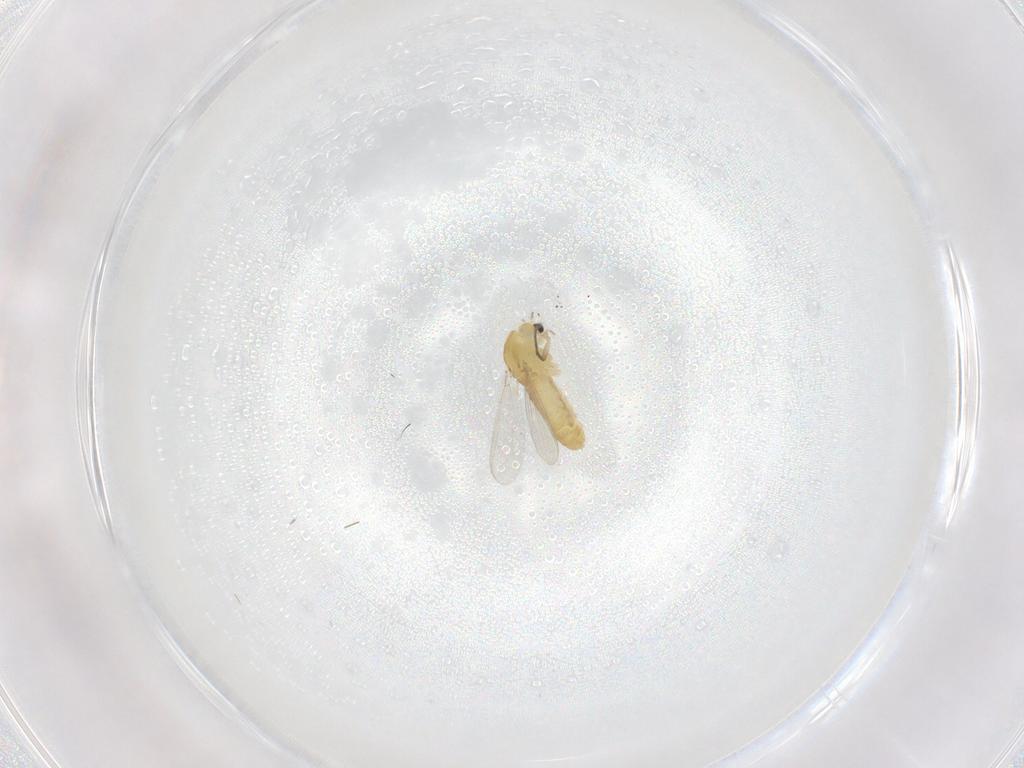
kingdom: Animalia
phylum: Arthropoda
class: Insecta
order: Diptera
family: Chironomidae
